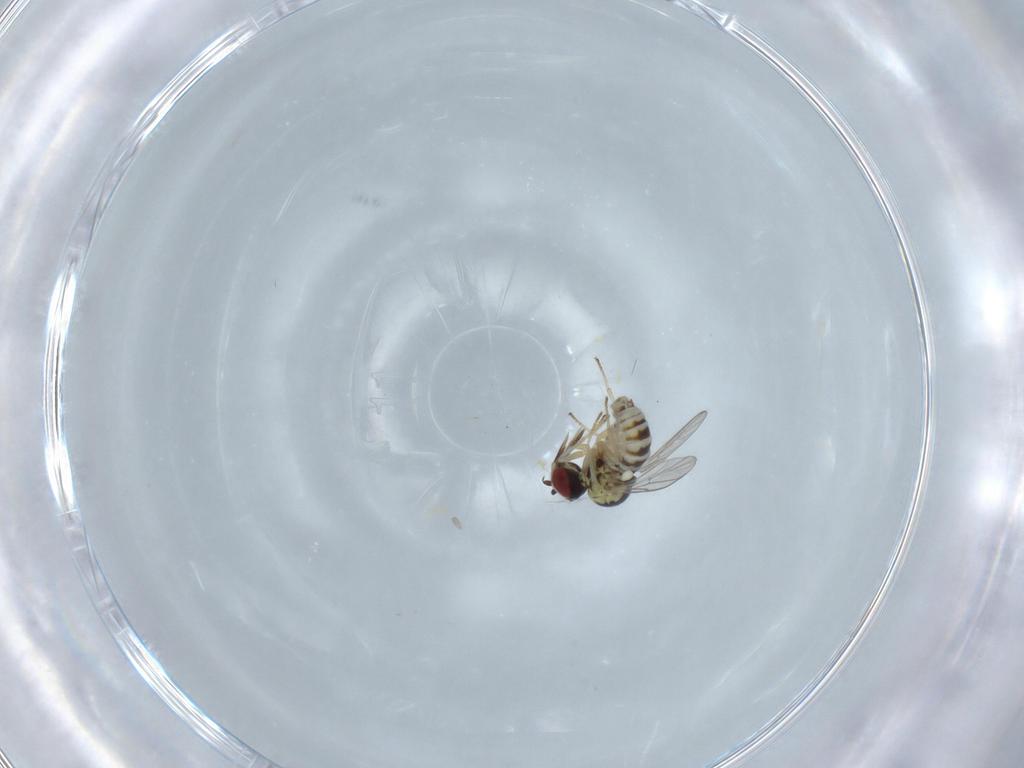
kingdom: Animalia
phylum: Arthropoda
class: Insecta
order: Diptera
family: Bombyliidae
